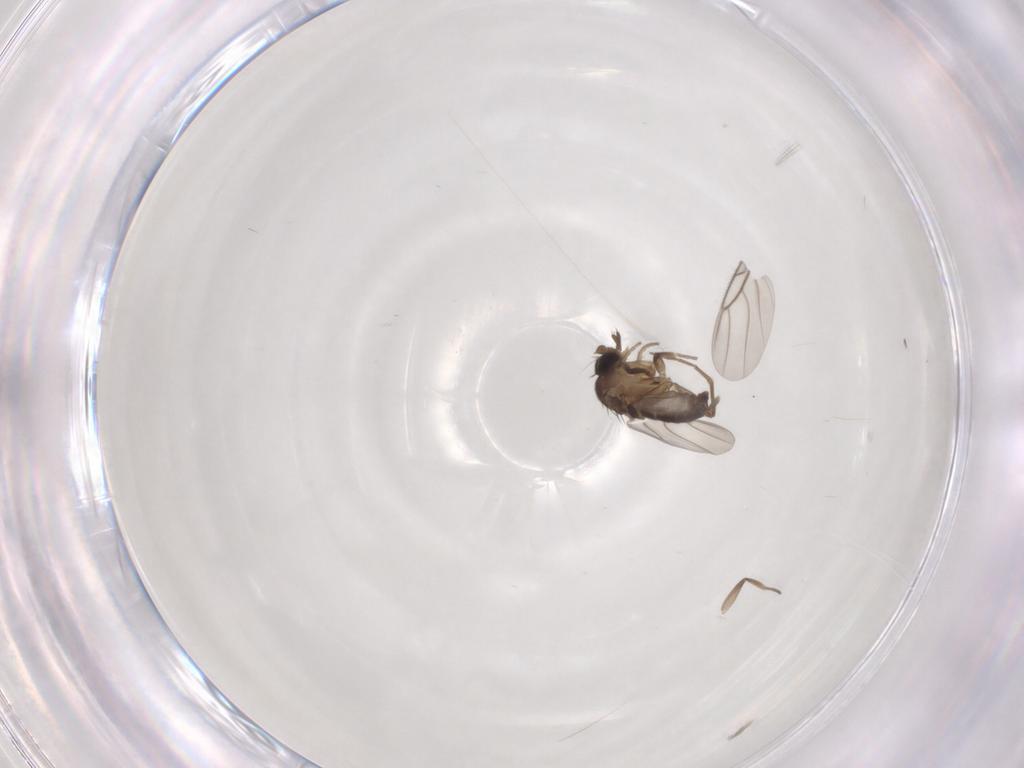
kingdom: Animalia
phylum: Arthropoda
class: Insecta
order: Diptera
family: Phoridae
